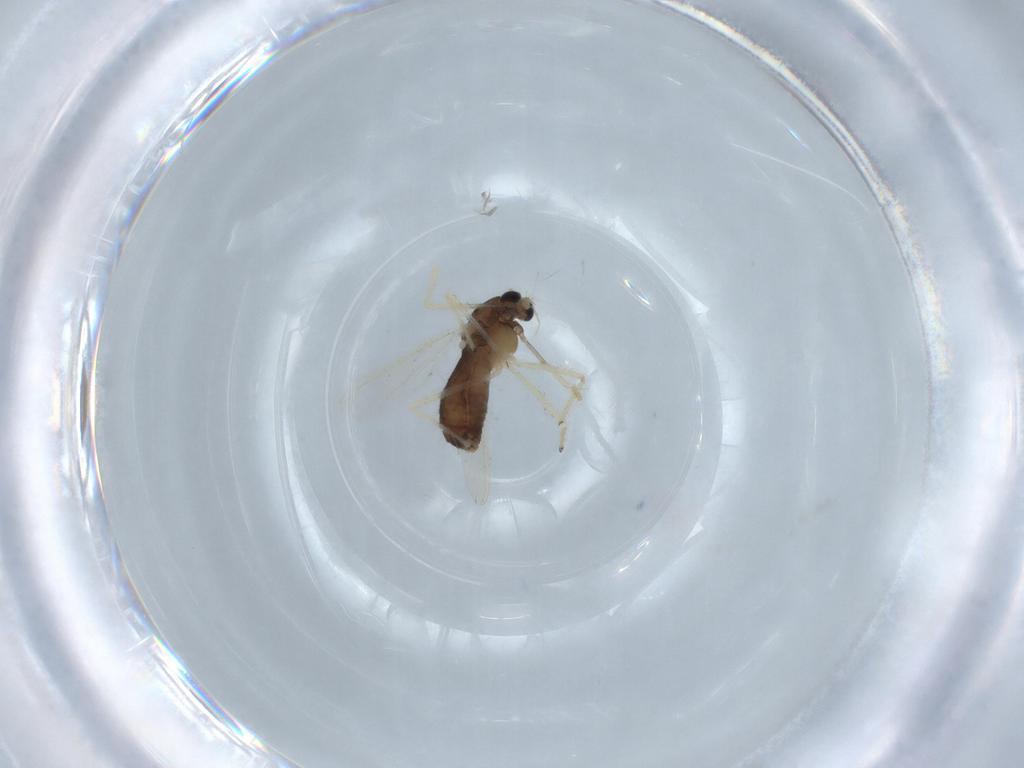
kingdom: Animalia
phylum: Arthropoda
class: Insecta
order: Diptera
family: Chironomidae
